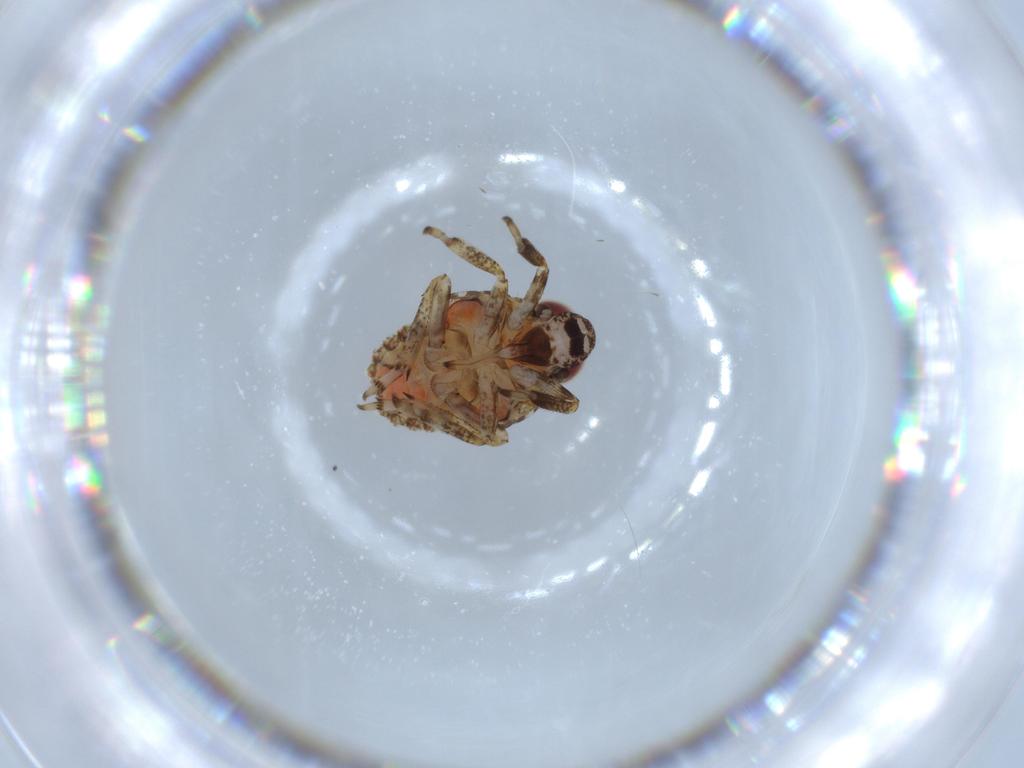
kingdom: Animalia
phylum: Arthropoda
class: Insecta
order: Hemiptera
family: Issidae
